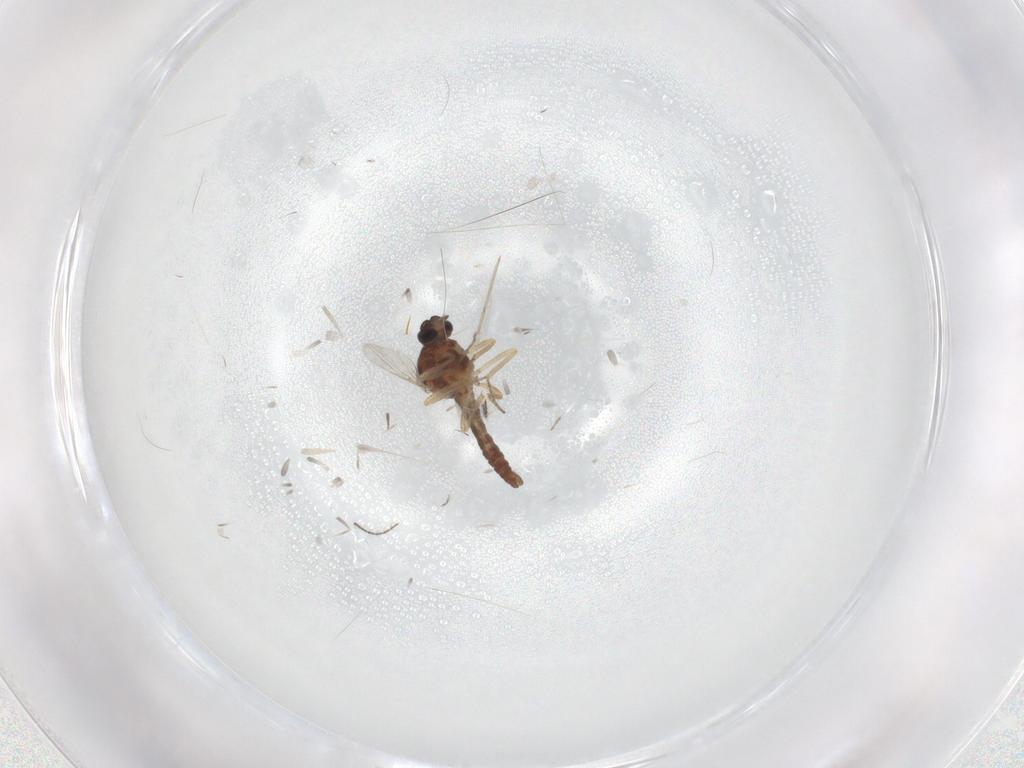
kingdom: Animalia
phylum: Arthropoda
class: Insecta
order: Diptera
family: Ceratopogonidae
